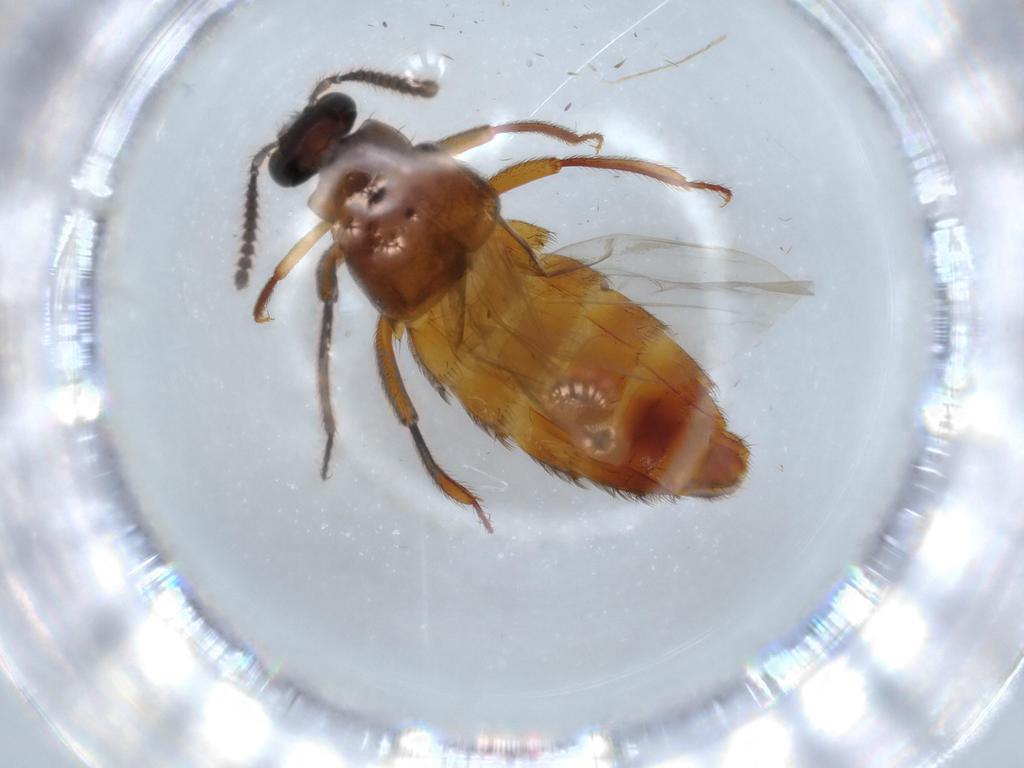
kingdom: Animalia
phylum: Arthropoda
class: Insecta
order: Coleoptera
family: Staphylinidae
